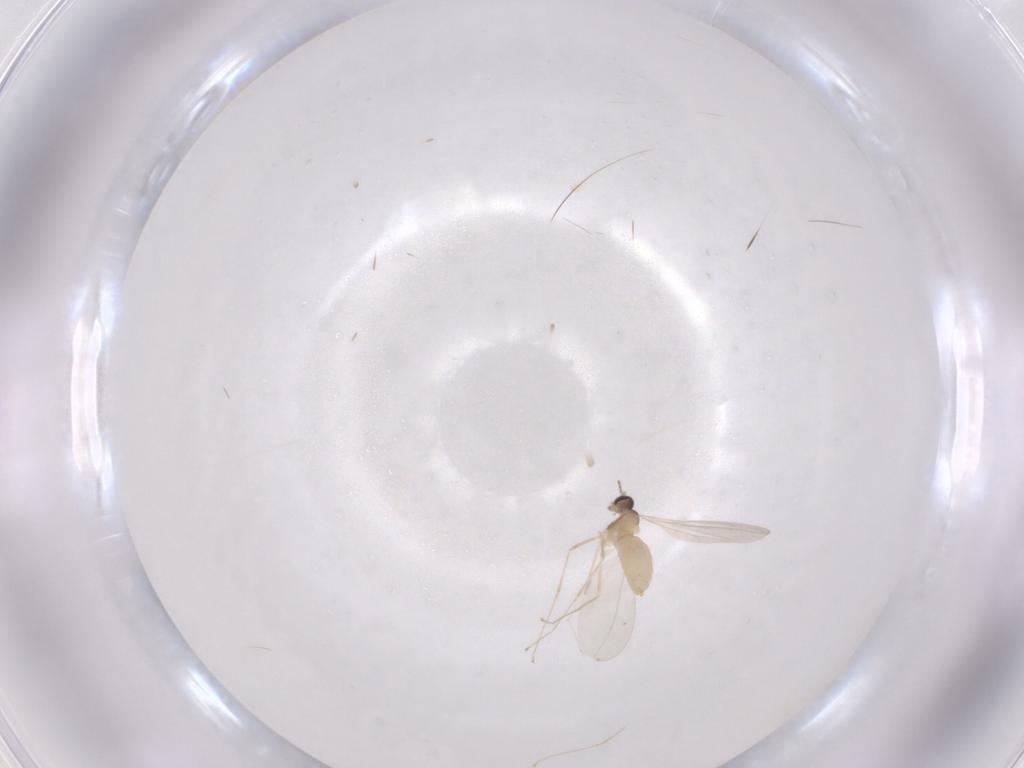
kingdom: Animalia
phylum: Arthropoda
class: Insecta
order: Diptera
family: Cecidomyiidae
